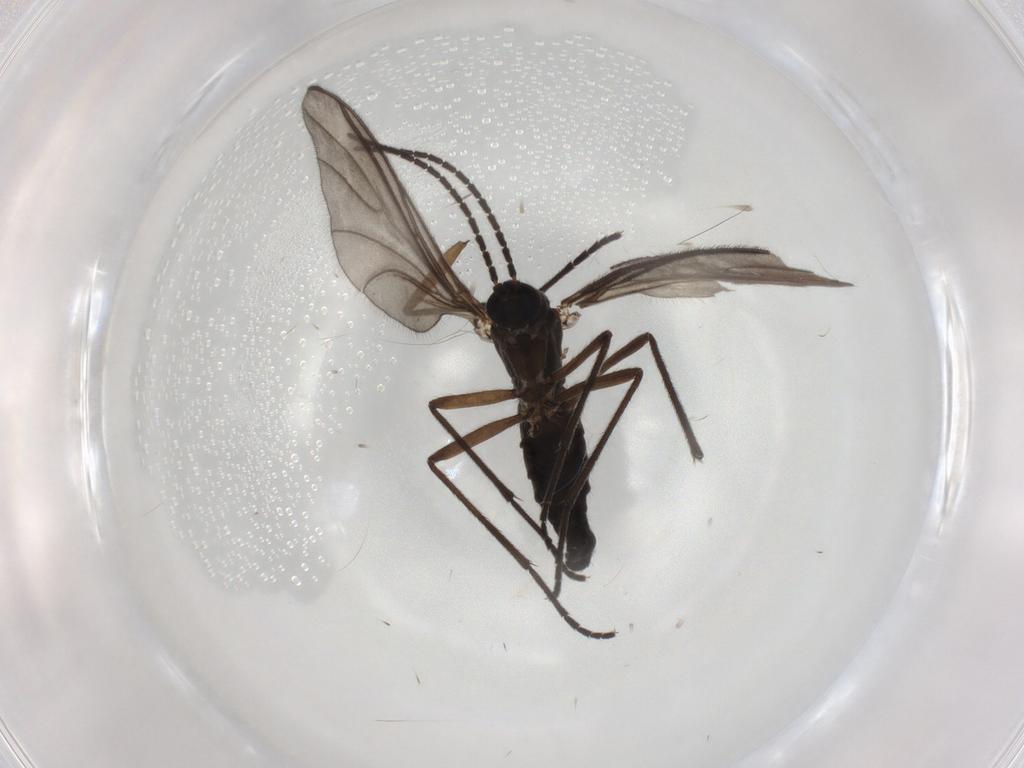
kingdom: Animalia
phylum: Arthropoda
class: Insecta
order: Diptera
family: Sciaridae
